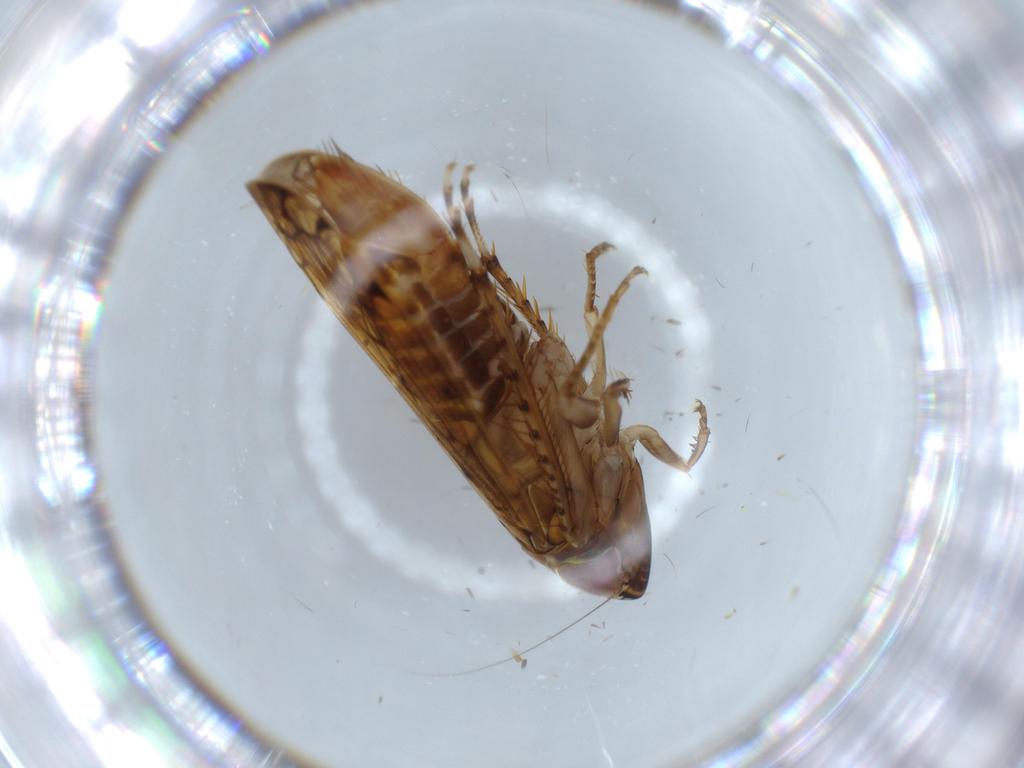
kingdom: Animalia
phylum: Arthropoda
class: Insecta
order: Hemiptera
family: Cicadellidae
